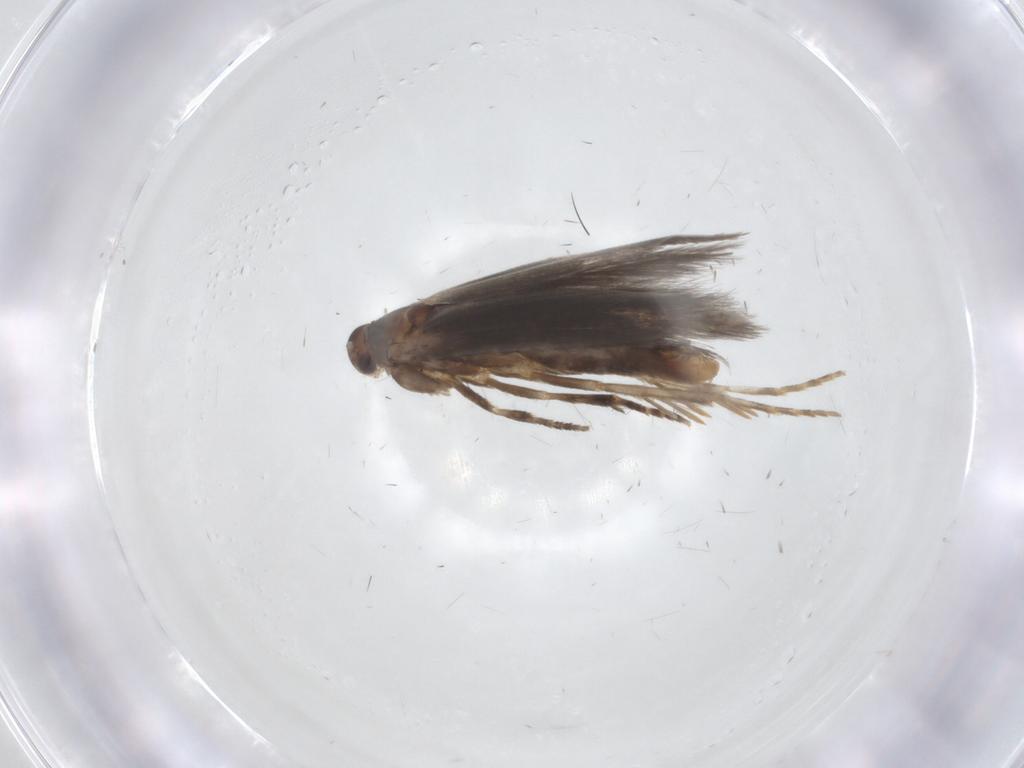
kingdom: Animalia
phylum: Arthropoda
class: Insecta
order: Lepidoptera
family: Elachistidae
